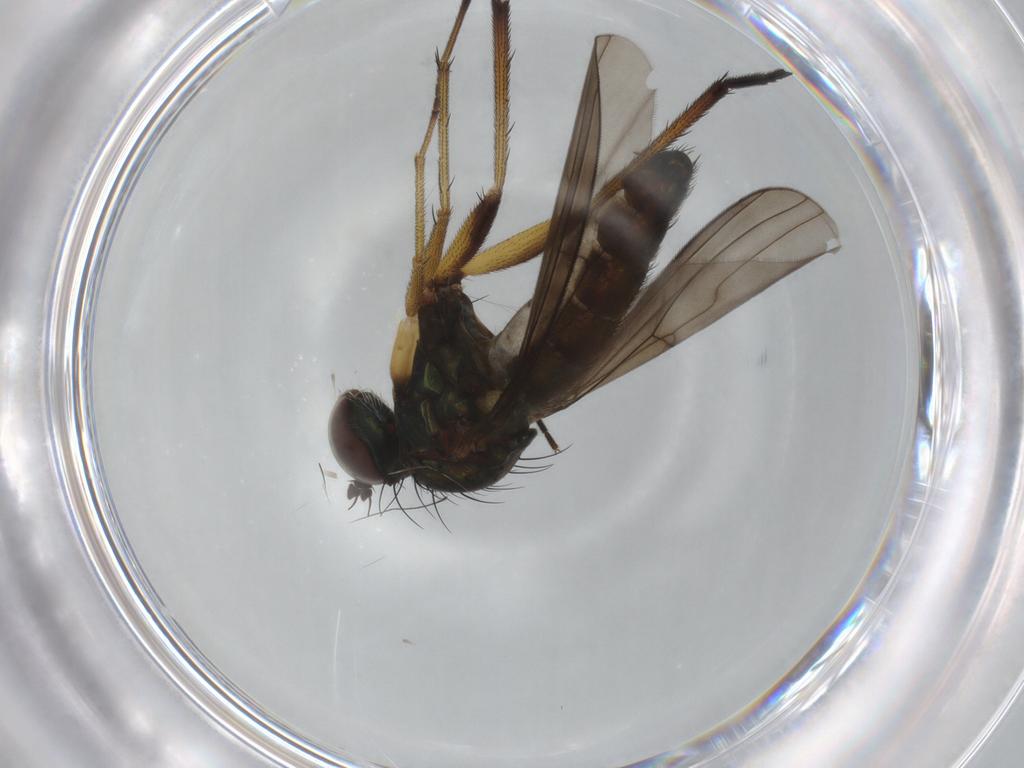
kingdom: Animalia
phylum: Arthropoda
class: Insecta
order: Diptera
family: Dolichopodidae
